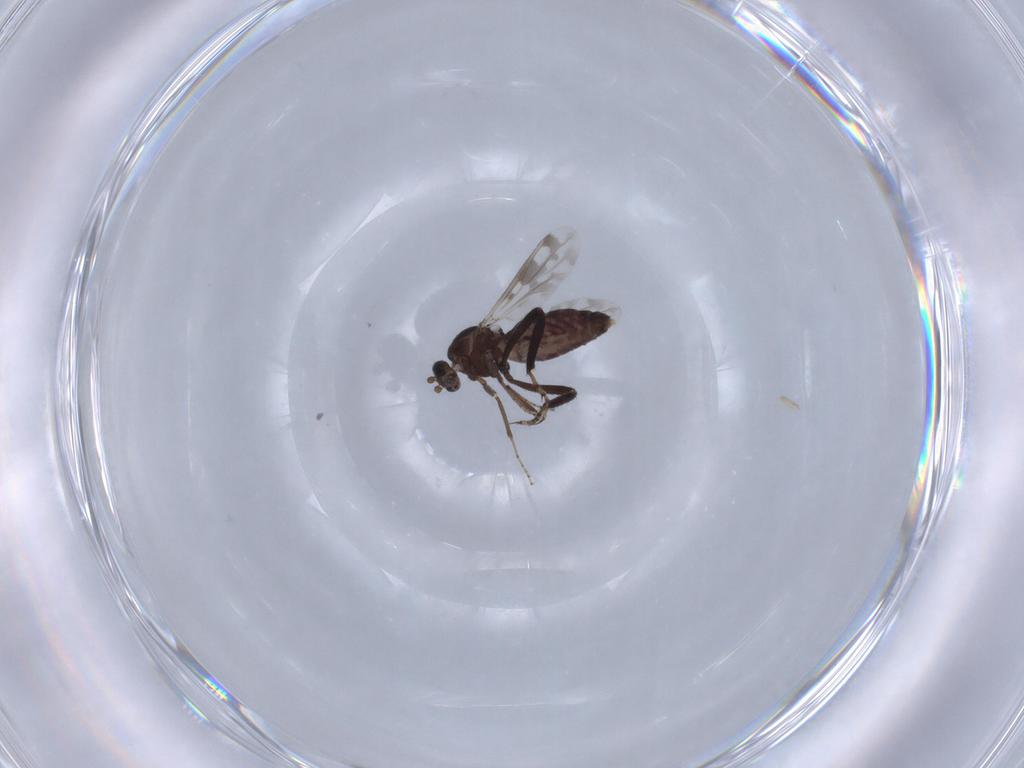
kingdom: Animalia
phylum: Arthropoda
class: Insecta
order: Diptera
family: Ceratopogonidae
